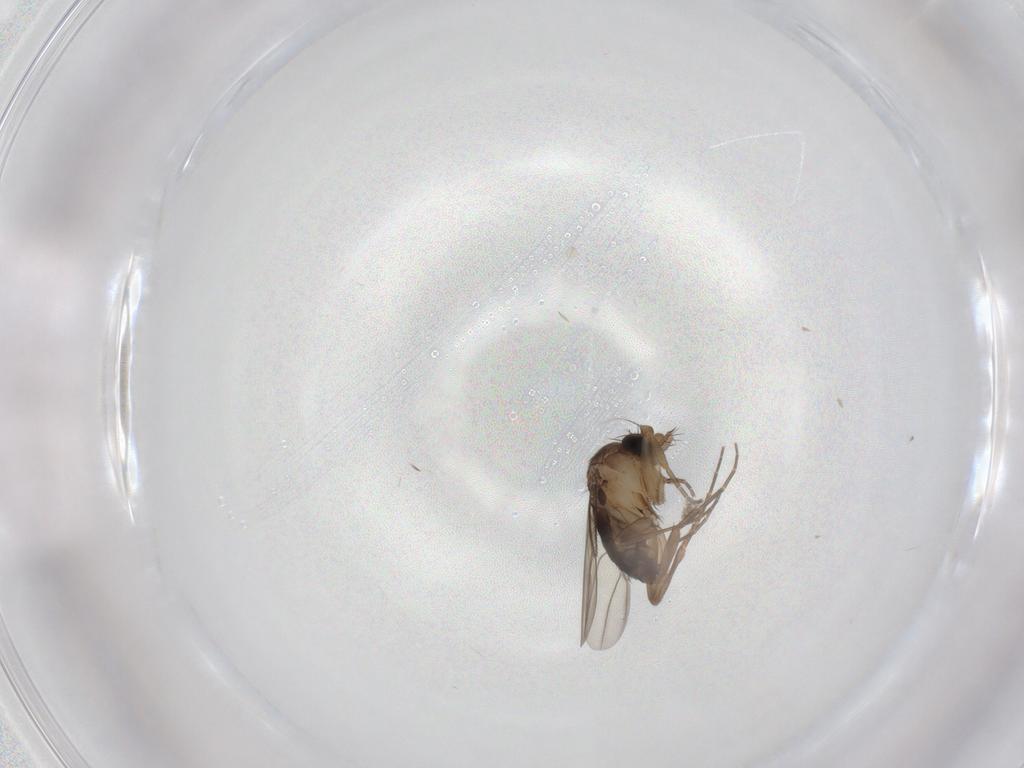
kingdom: Animalia
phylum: Arthropoda
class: Insecta
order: Diptera
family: Phoridae
